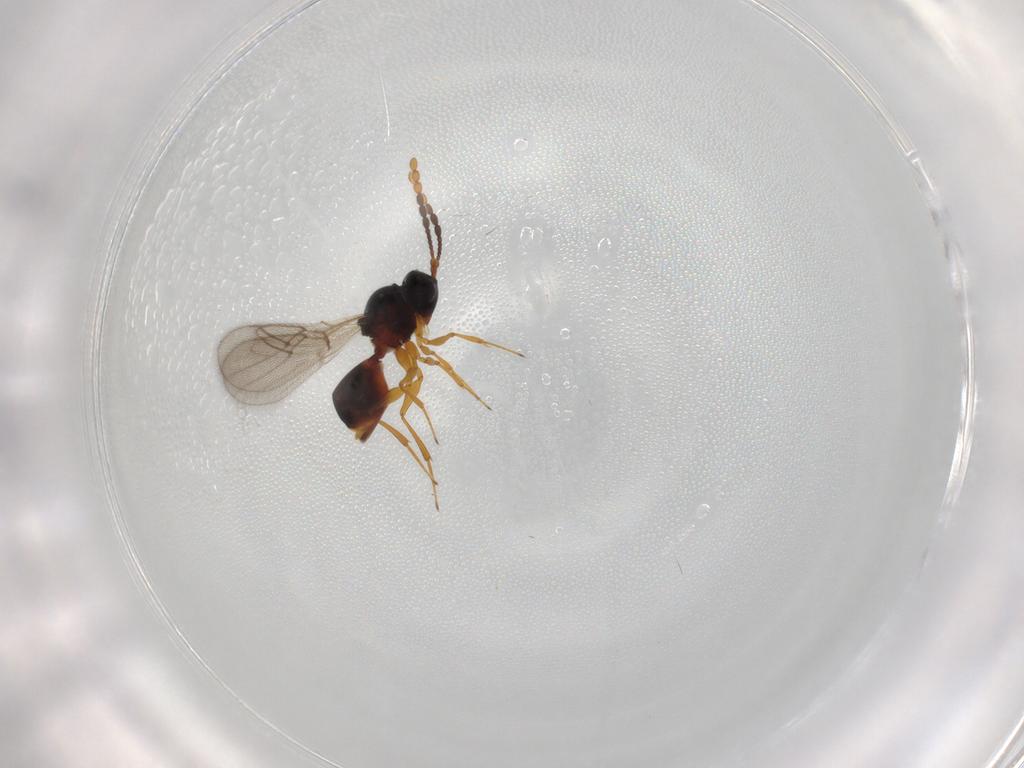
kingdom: Animalia
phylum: Arthropoda
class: Insecta
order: Hymenoptera
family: Figitidae
